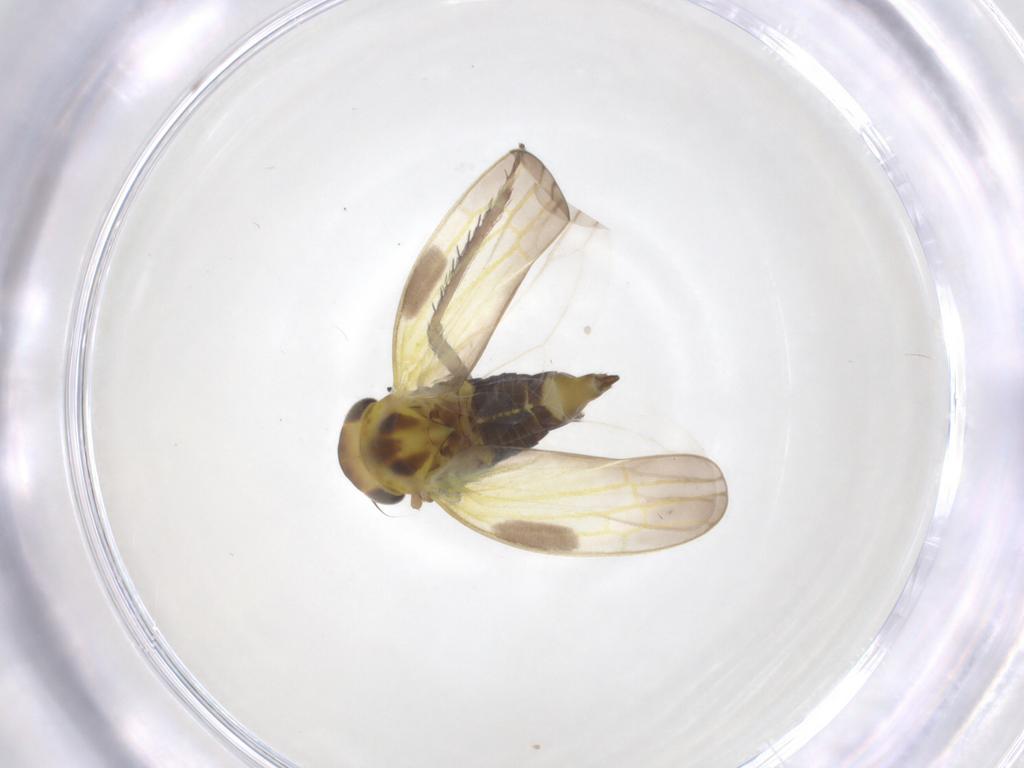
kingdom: Animalia
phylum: Arthropoda
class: Insecta
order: Hemiptera
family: Cicadellidae
